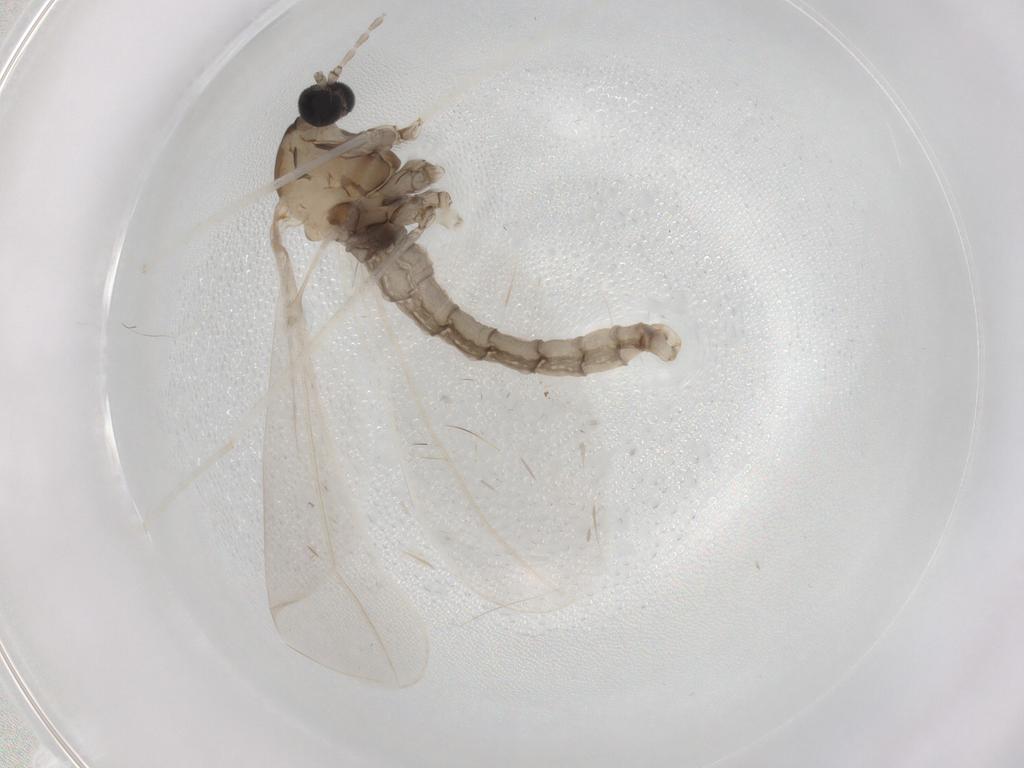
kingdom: Animalia
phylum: Arthropoda
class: Insecta
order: Diptera
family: Cecidomyiidae
